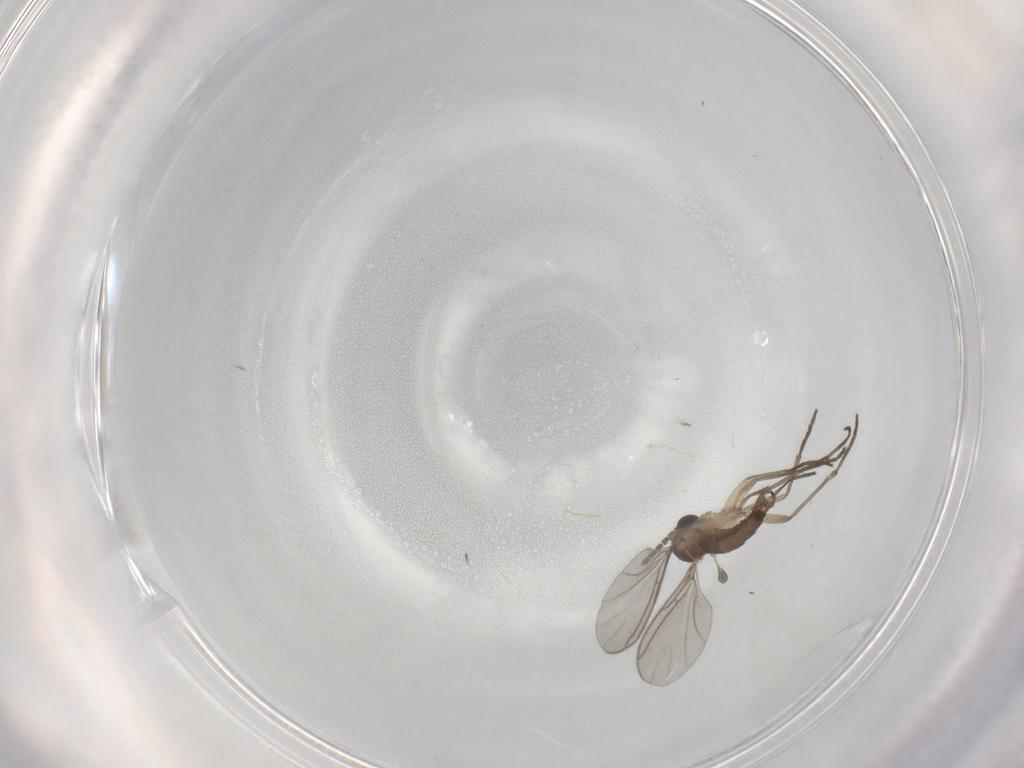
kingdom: Animalia
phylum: Arthropoda
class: Insecta
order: Diptera
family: Sciaridae
